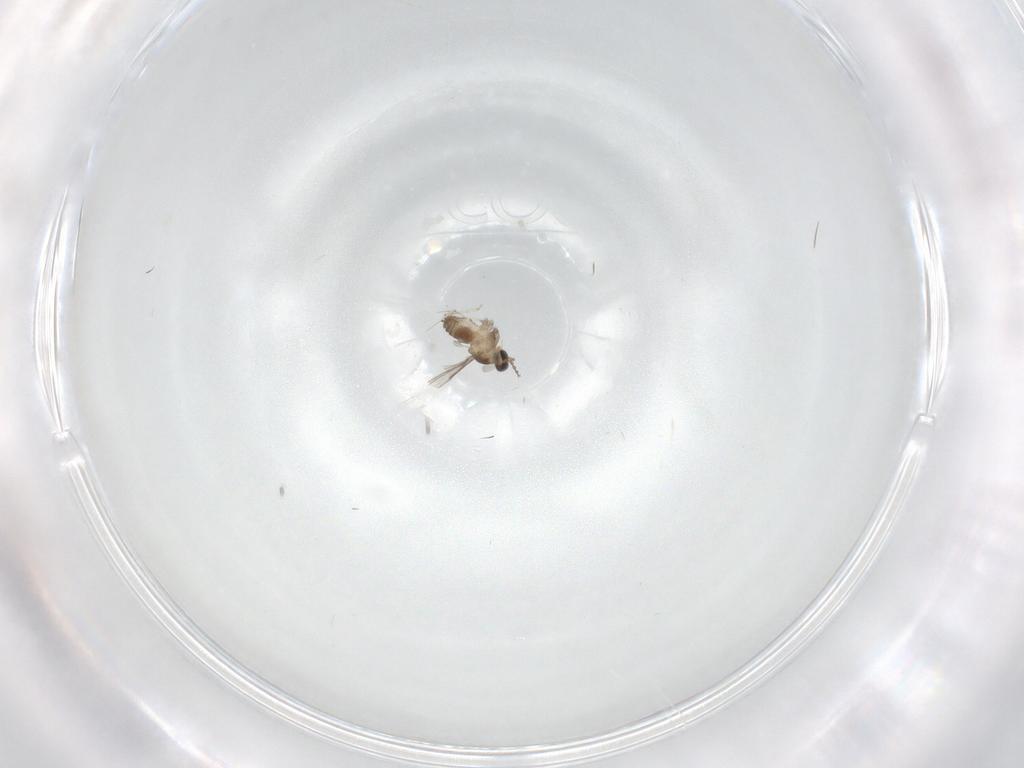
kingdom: Animalia
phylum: Arthropoda
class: Insecta
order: Diptera
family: Cecidomyiidae
